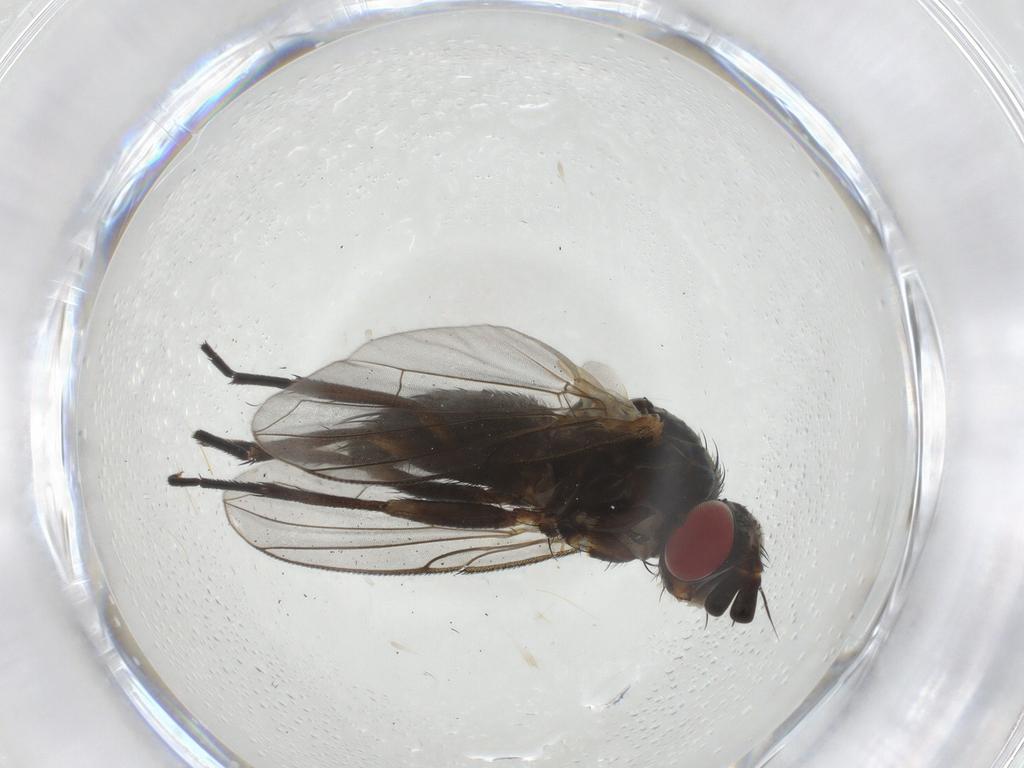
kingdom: Animalia
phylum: Arthropoda
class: Insecta
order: Diptera
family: Tachinidae
